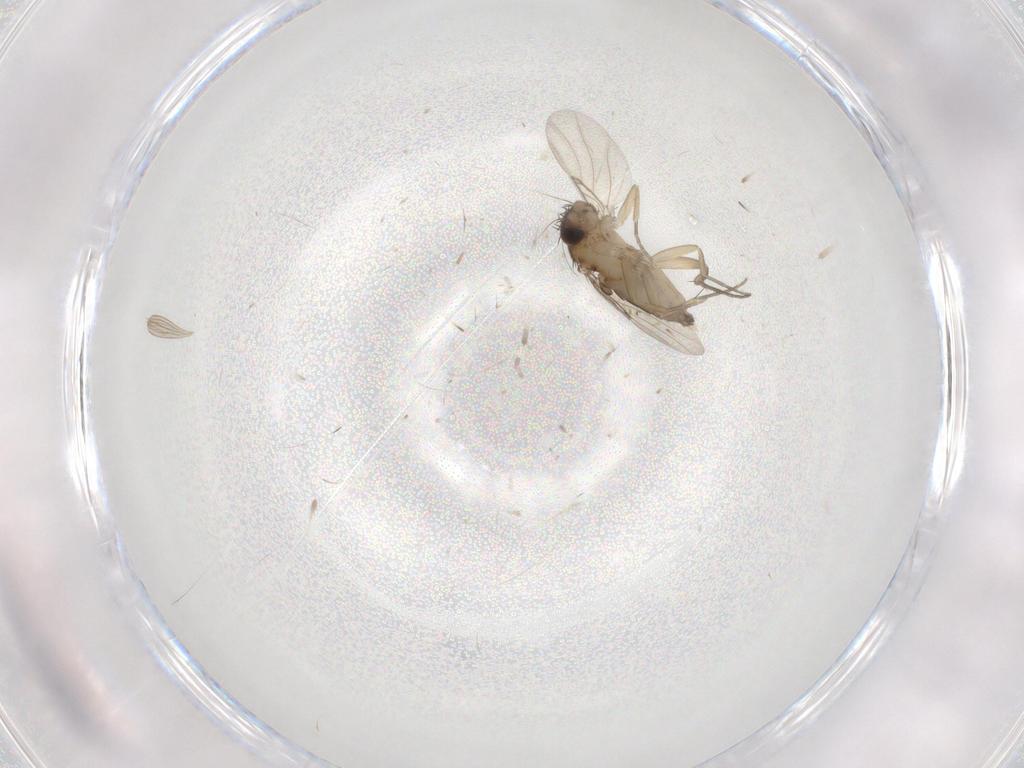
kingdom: Animalia
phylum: Arthropoda
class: Insecta
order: Diptera
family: Phoridae
